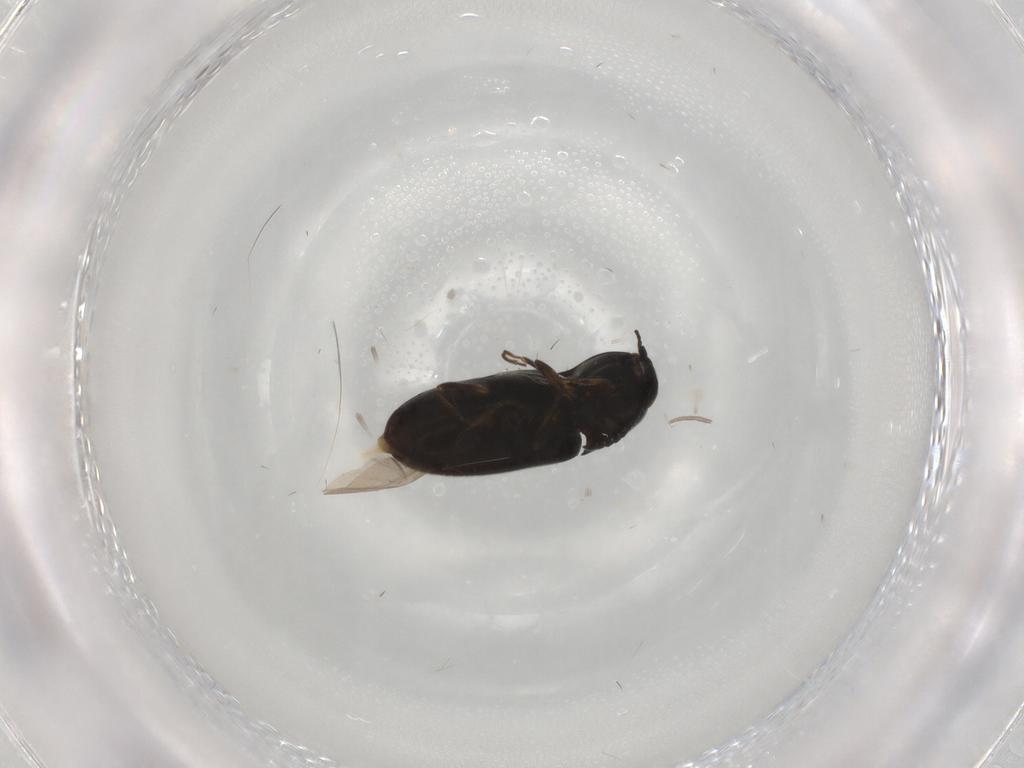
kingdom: Animalia
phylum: Arthropoda
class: Insecta
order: Coleoptera
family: Elateridae
